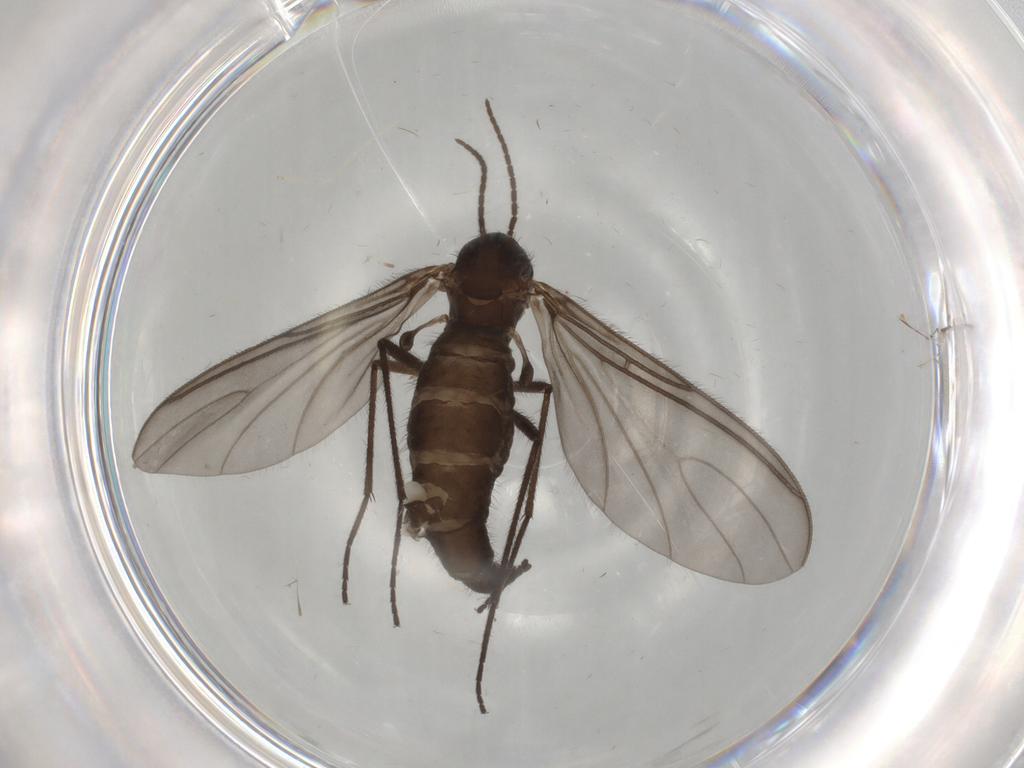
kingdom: Animalia
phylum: Arthropoda
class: Insecta
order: Diptera
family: Sciaridae
